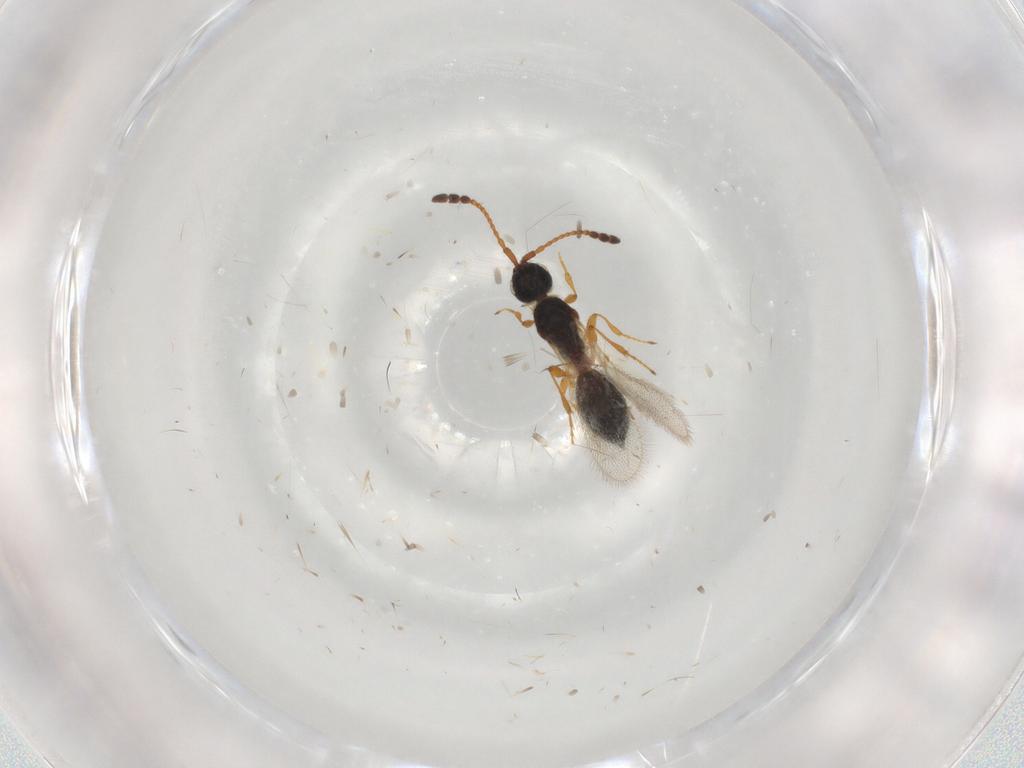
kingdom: Animalia
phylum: Arthropoda
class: Insecta
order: Hymenoptera
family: Diapriidae
